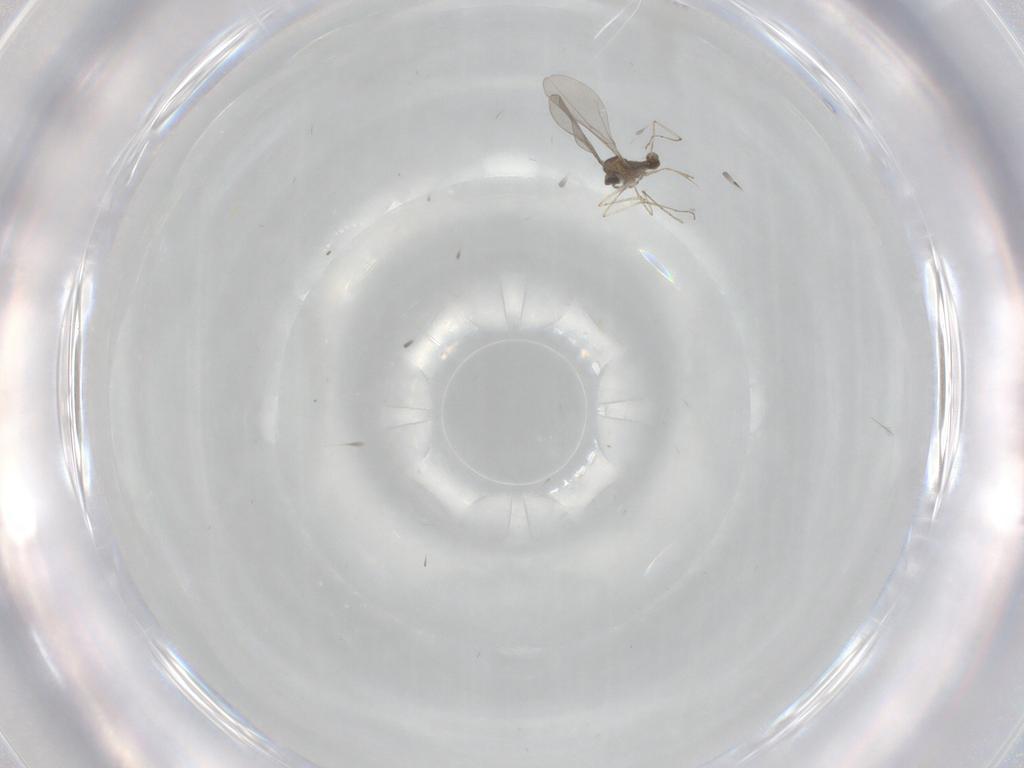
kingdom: Animalia
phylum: Arthropoda
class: Insecta
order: Diptera
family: Cecidomyiidae
